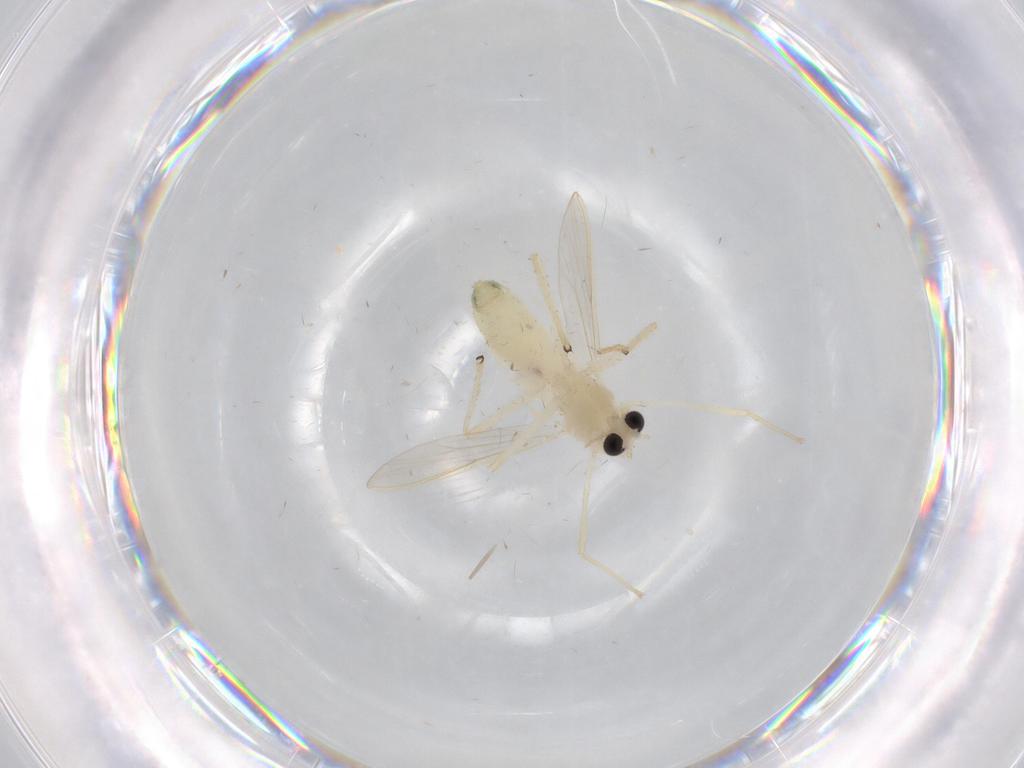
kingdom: Animalia
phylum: Arthropoda
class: Insecta
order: Diptera
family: Chironomidae
